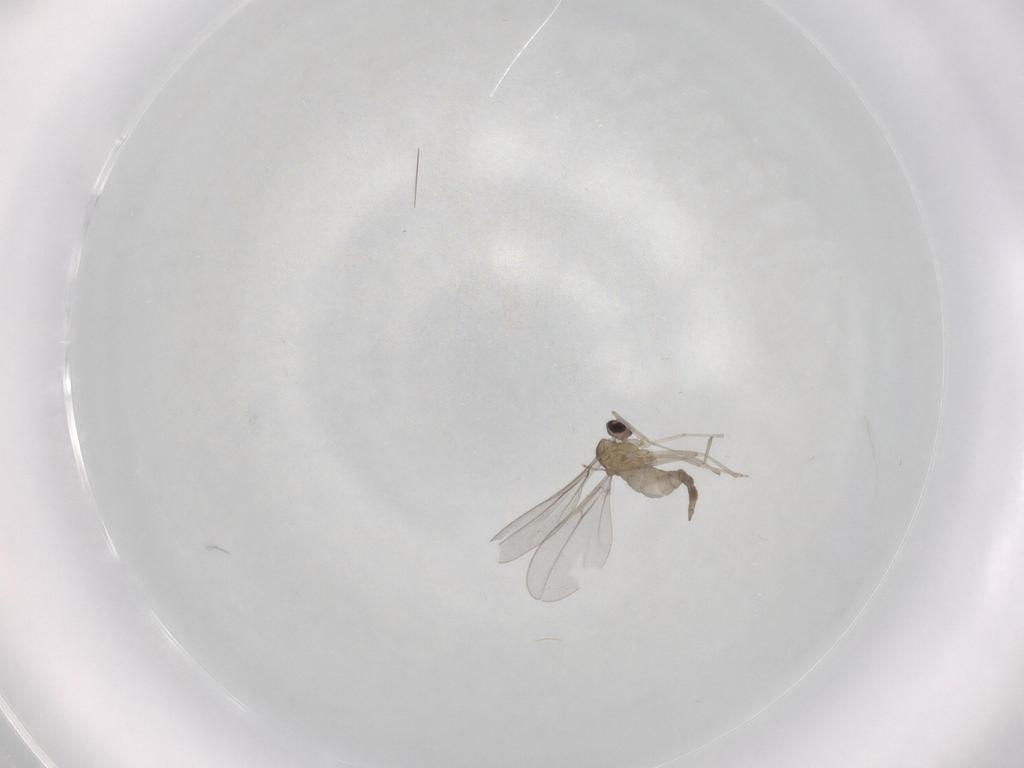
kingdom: Animalia
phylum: Arthropoda
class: Insecta
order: Diptera
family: Cecidomyiidae
